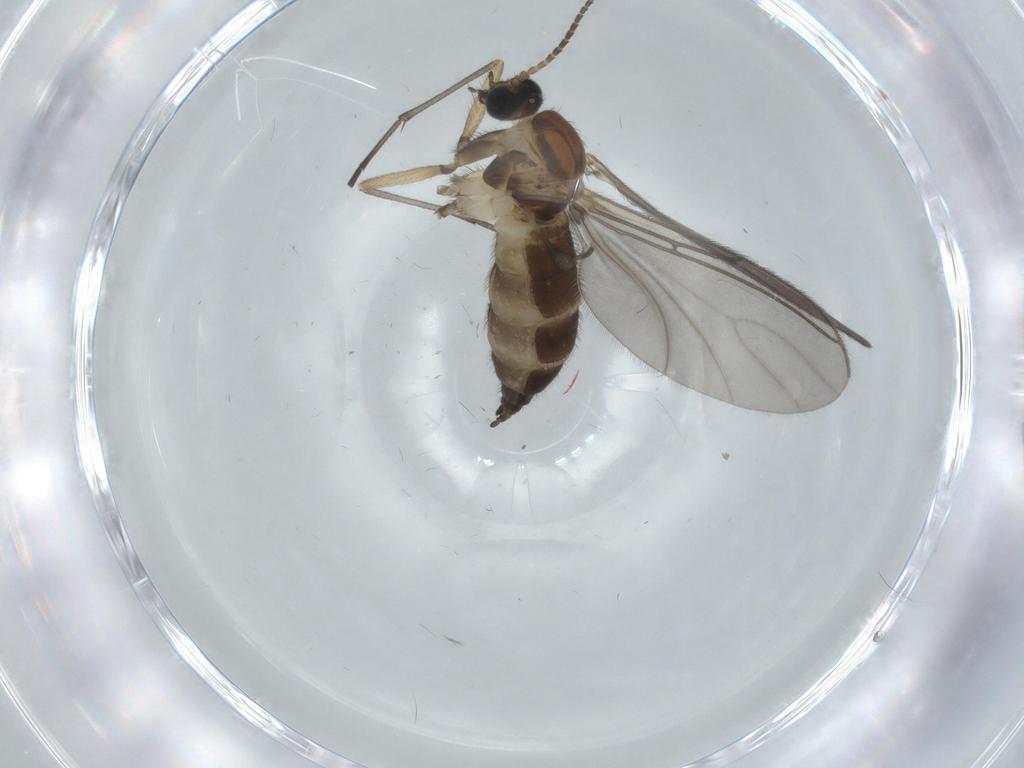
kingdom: Animalia
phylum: Arthropoda
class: Insecta
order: Diptera
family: Sciaridae
